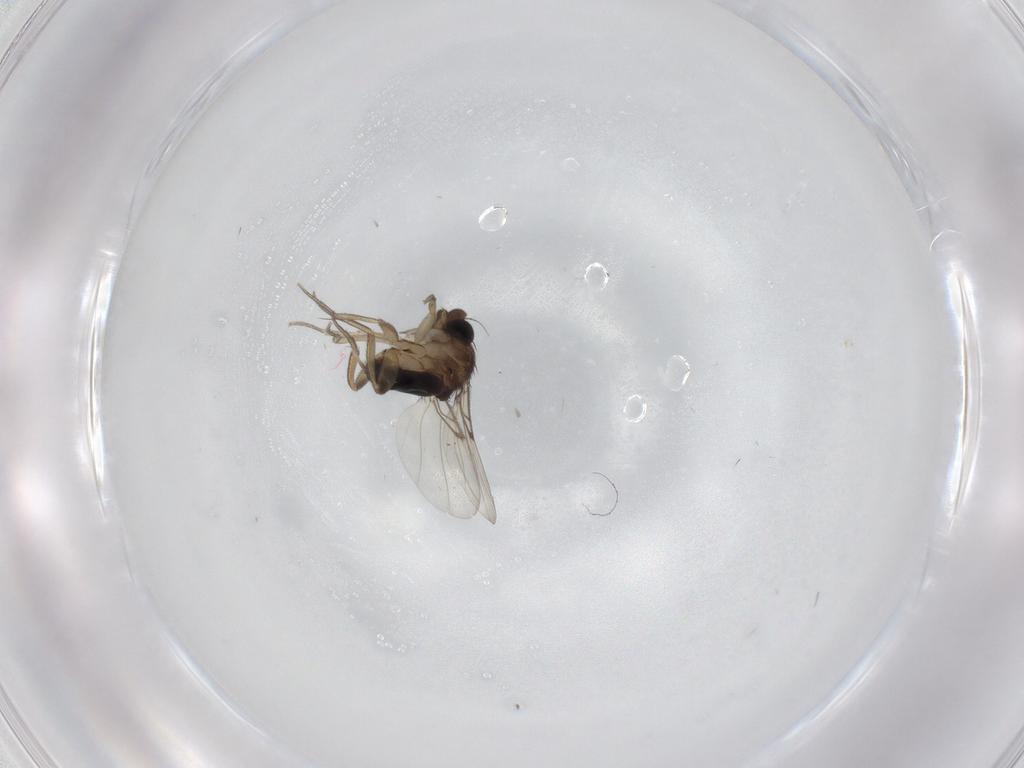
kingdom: Animalia
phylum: Arthropoda
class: Insecta
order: Diptera
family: Phoridae
